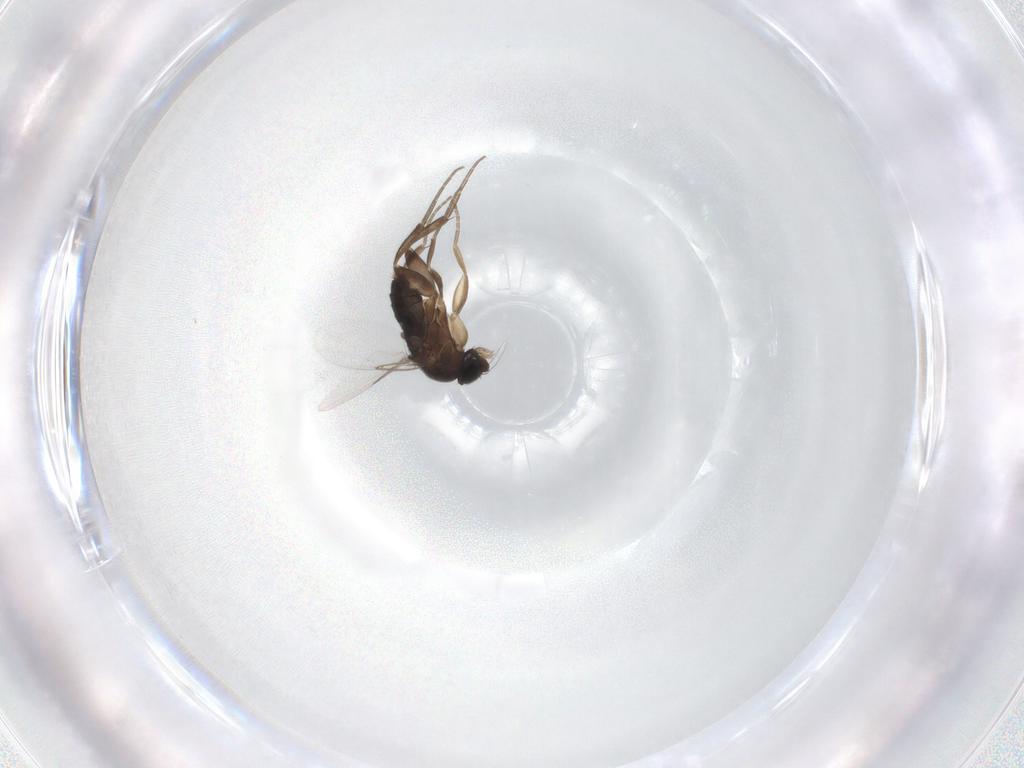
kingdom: Animalia
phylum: Arthropoda
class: Insecta
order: Diptera
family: Phoridae
